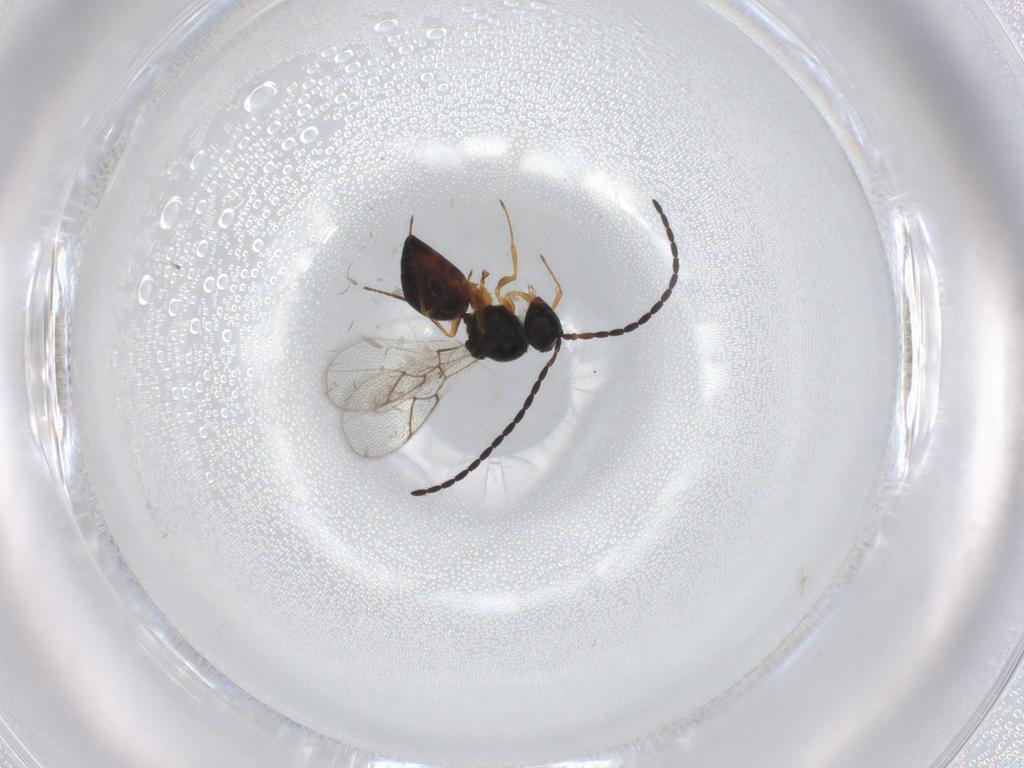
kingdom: Animalia
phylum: Arthropoda
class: Insecta
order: Hymenoptera
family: Figitidae
